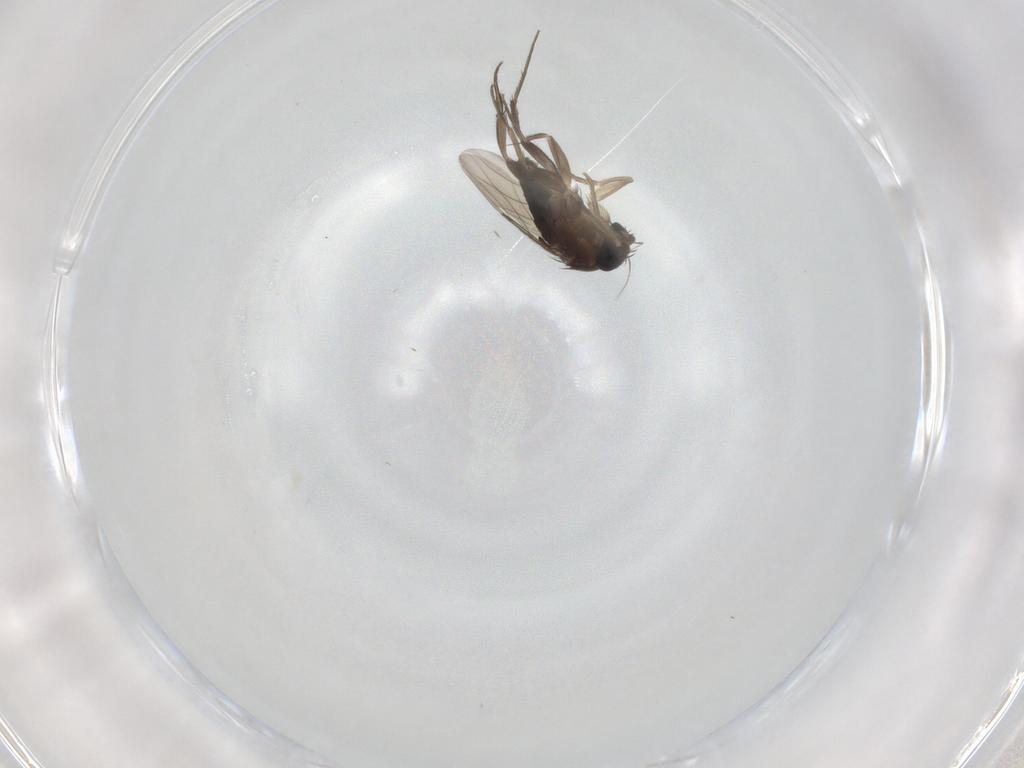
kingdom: Animalia
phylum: Arthropoda
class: Insecta
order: Diptera
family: Phoridae
